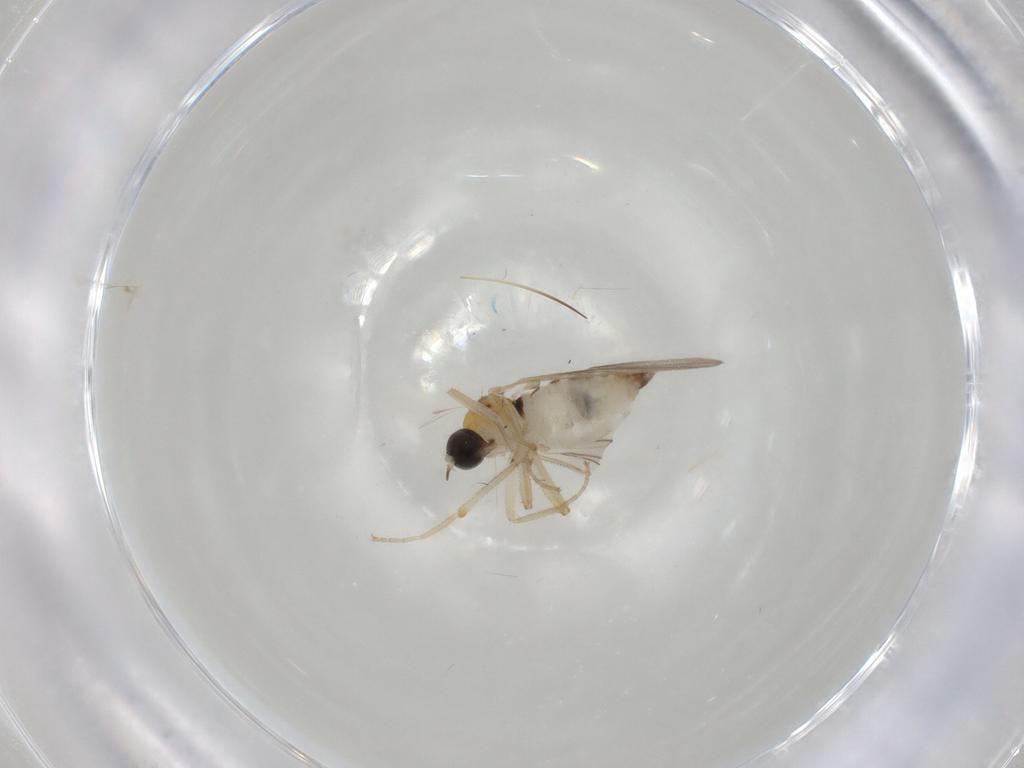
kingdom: Animalia
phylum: Arthropoda
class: Insecta
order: Diptera
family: Hybotidae
